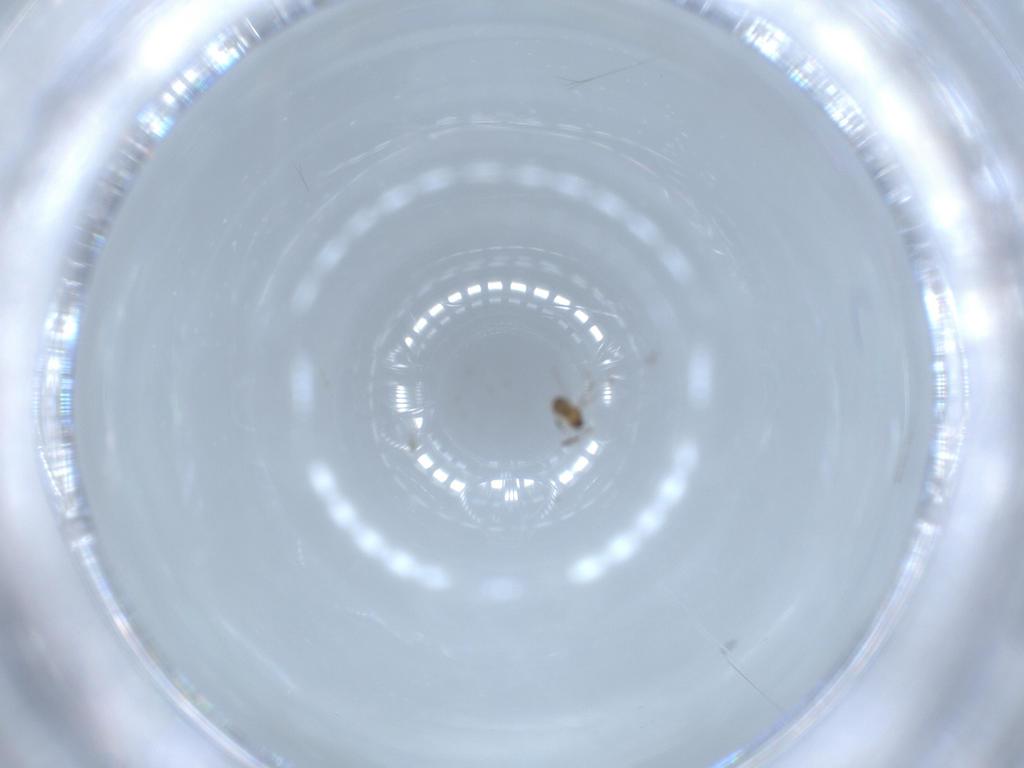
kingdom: Animalia
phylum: Arthropoda
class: Insecta
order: Hymenoptera
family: Mymaridae
